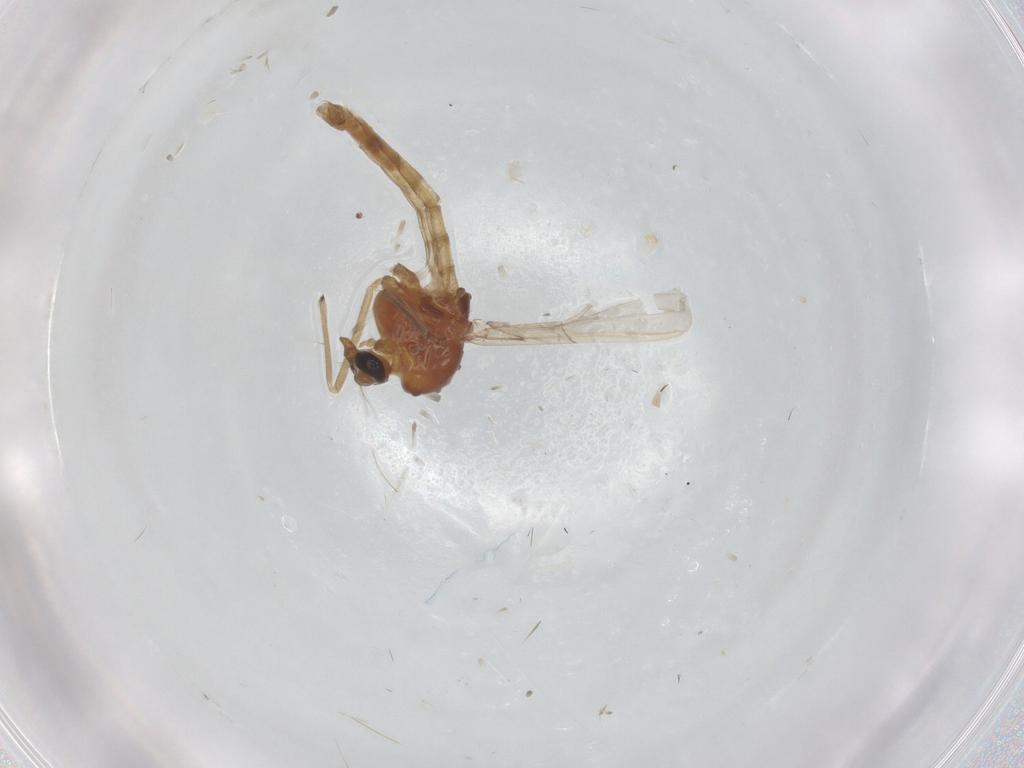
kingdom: Animalia
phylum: Arthropoda
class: Insecta
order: Diptera
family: Chironomidae
